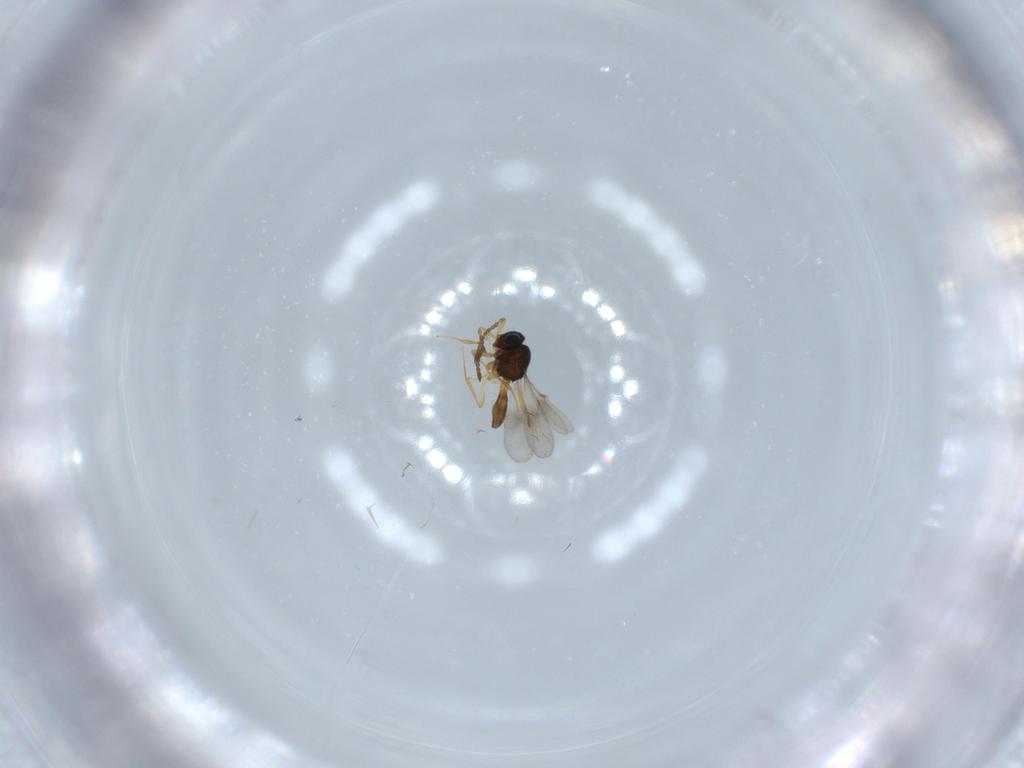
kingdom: Animalia
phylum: Arthropoda
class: Insecta
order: Hymenoptera
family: Scelionidae
